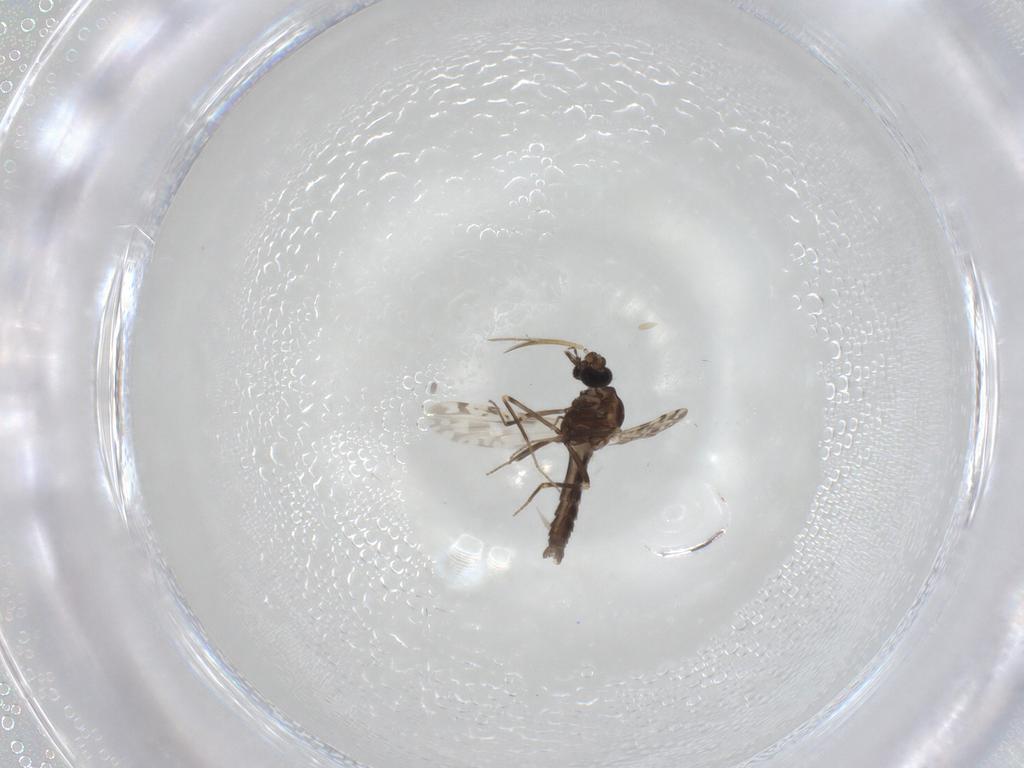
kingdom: Animalia
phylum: Arthropoda
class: Insecta
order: Diptera
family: Ceratopogonidae
